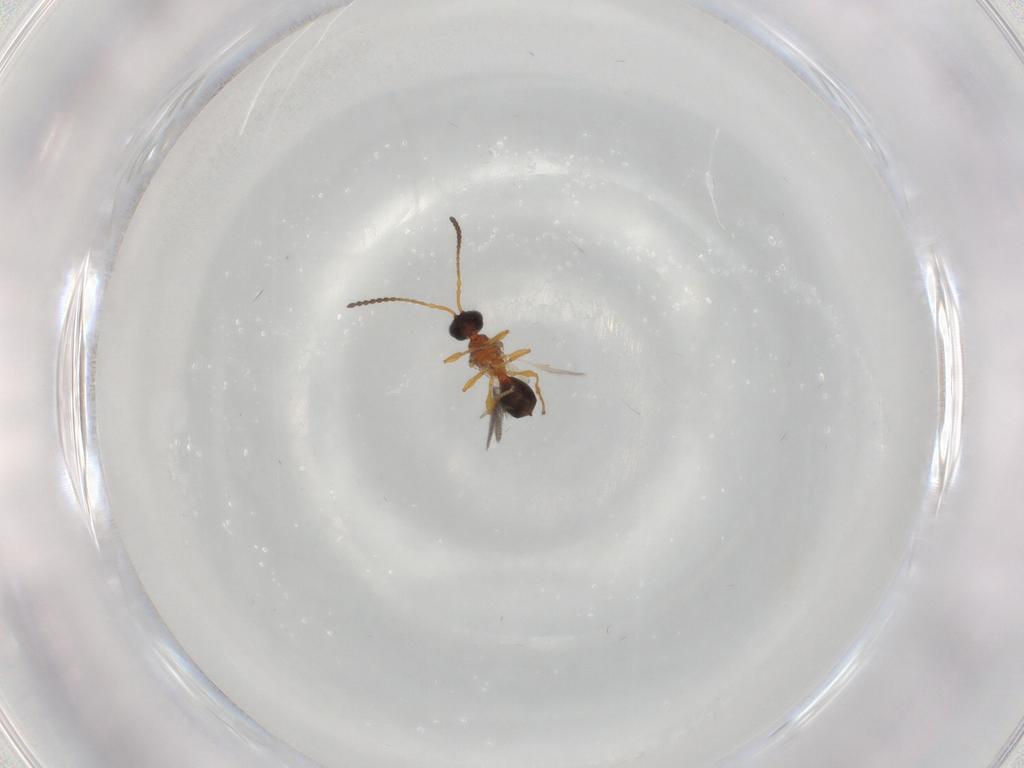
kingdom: Animalia
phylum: Arthropoda
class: Insecta
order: Hymenoptera
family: Diapriidae
